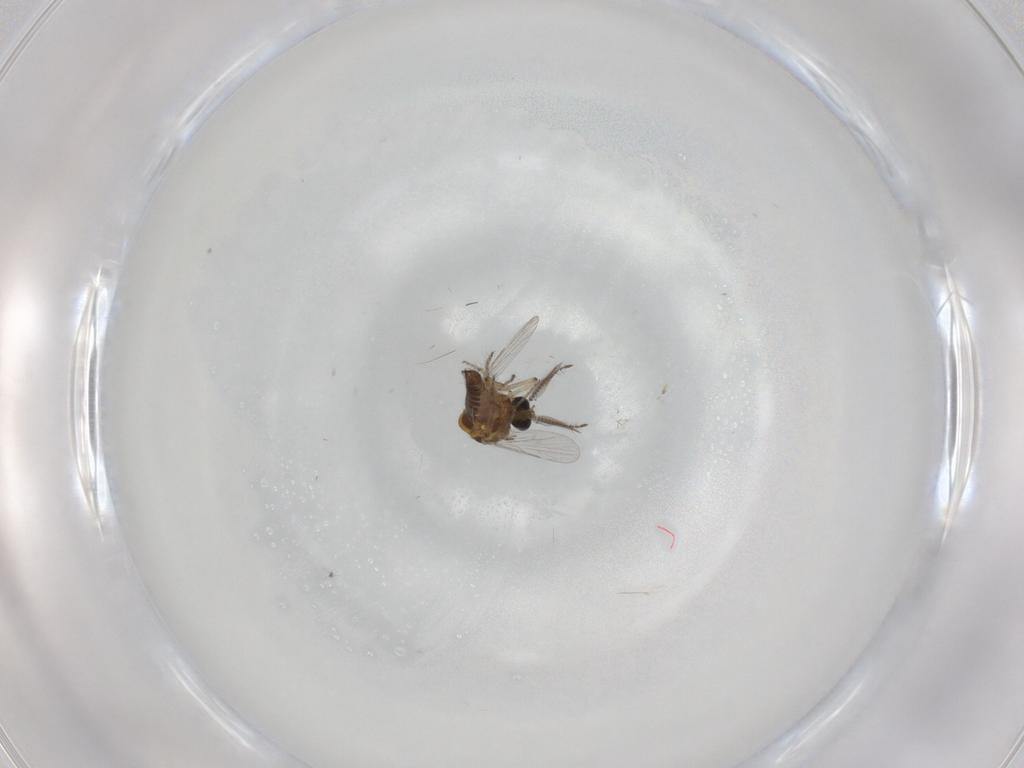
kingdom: Animalia
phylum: Arthropoda
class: Insecta
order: Diptera
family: Ceratopogonidae
